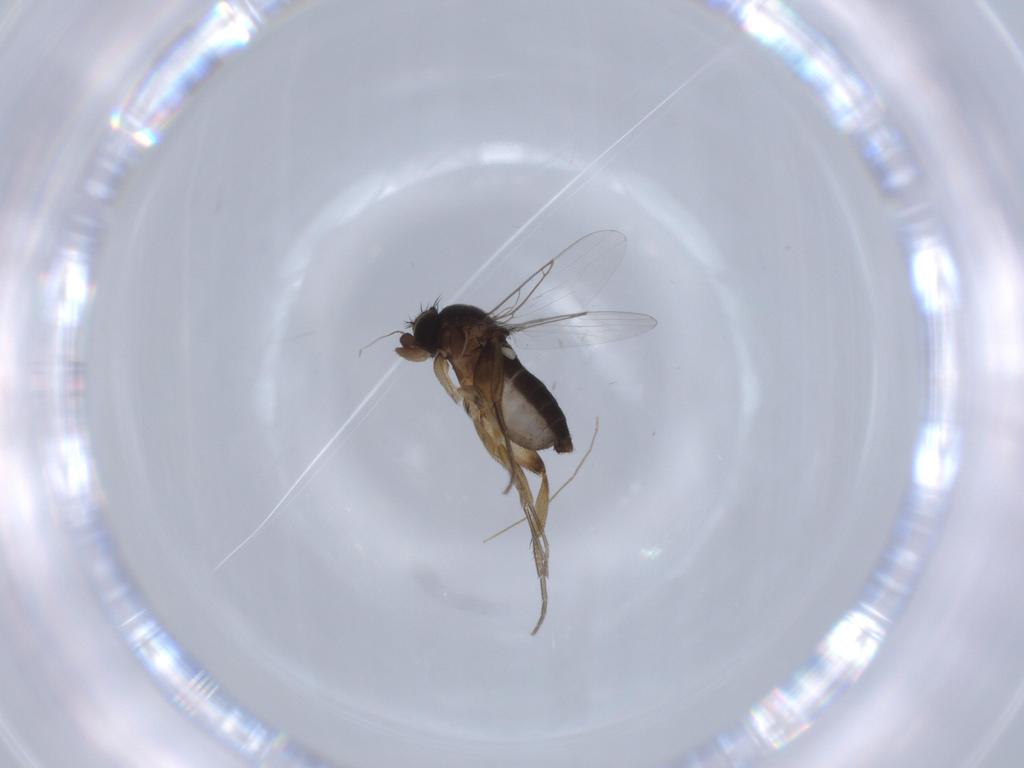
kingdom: Animalia
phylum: Arthropoda
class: Insecta
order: Diptera
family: Phoridae
